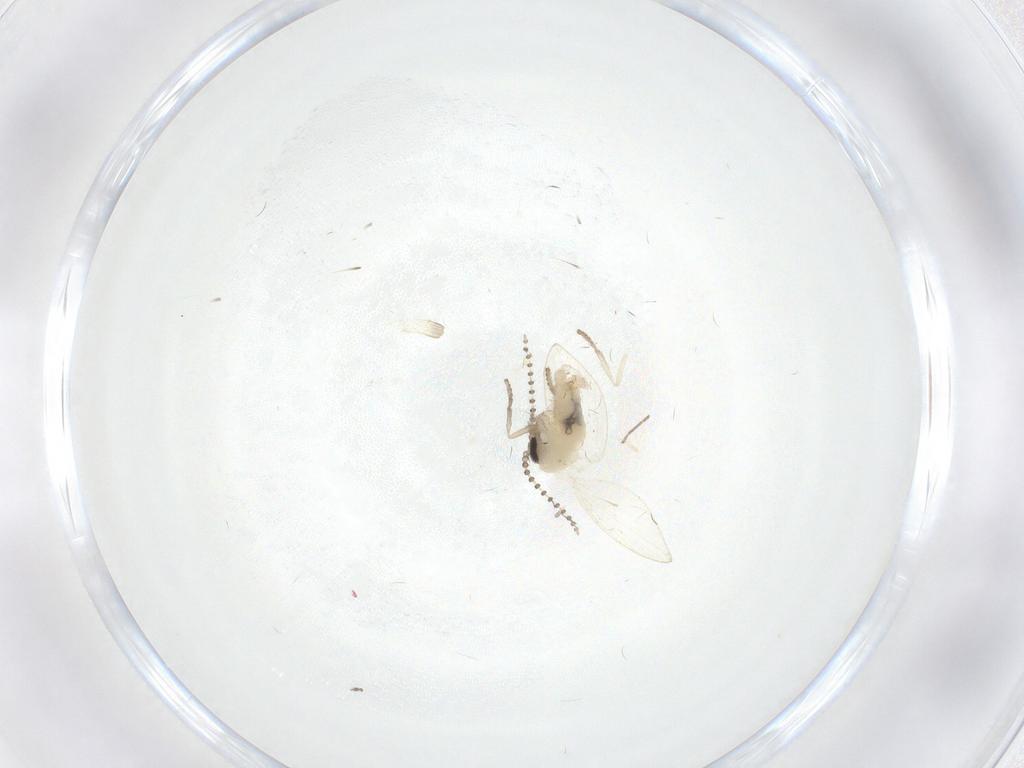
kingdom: Animalia
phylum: Arthropoda
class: Insecta
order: Diptera
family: Psychodidae
